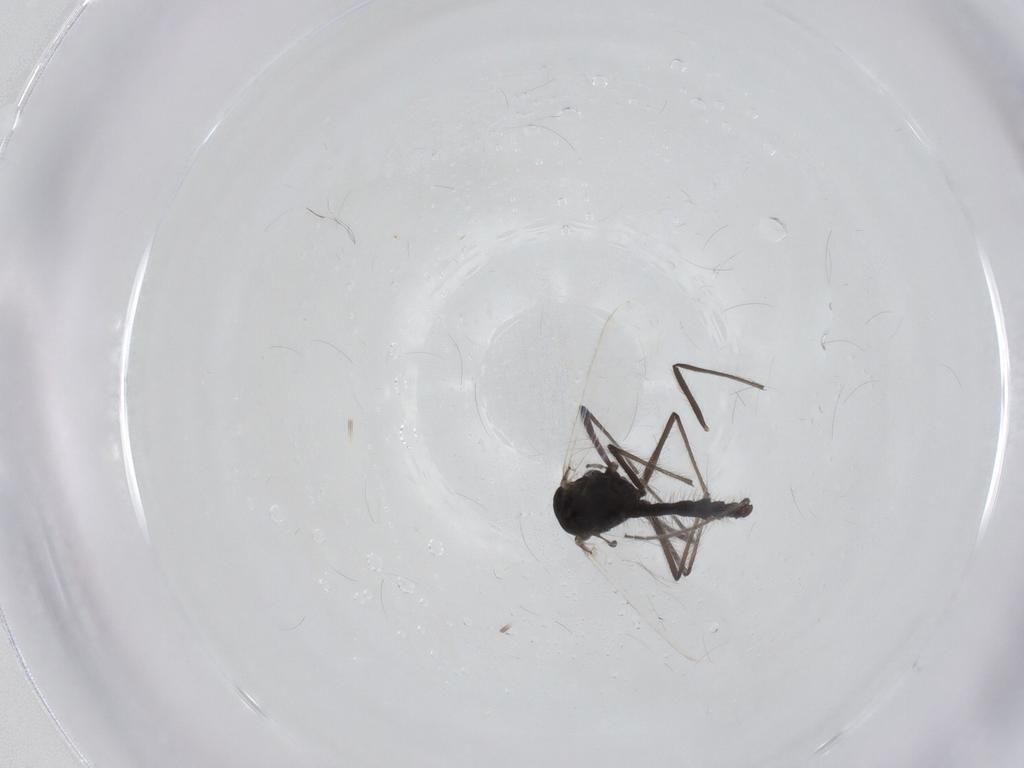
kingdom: Animalia
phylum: Arthropoda
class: Insecta
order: Diptera
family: Chironomidae
